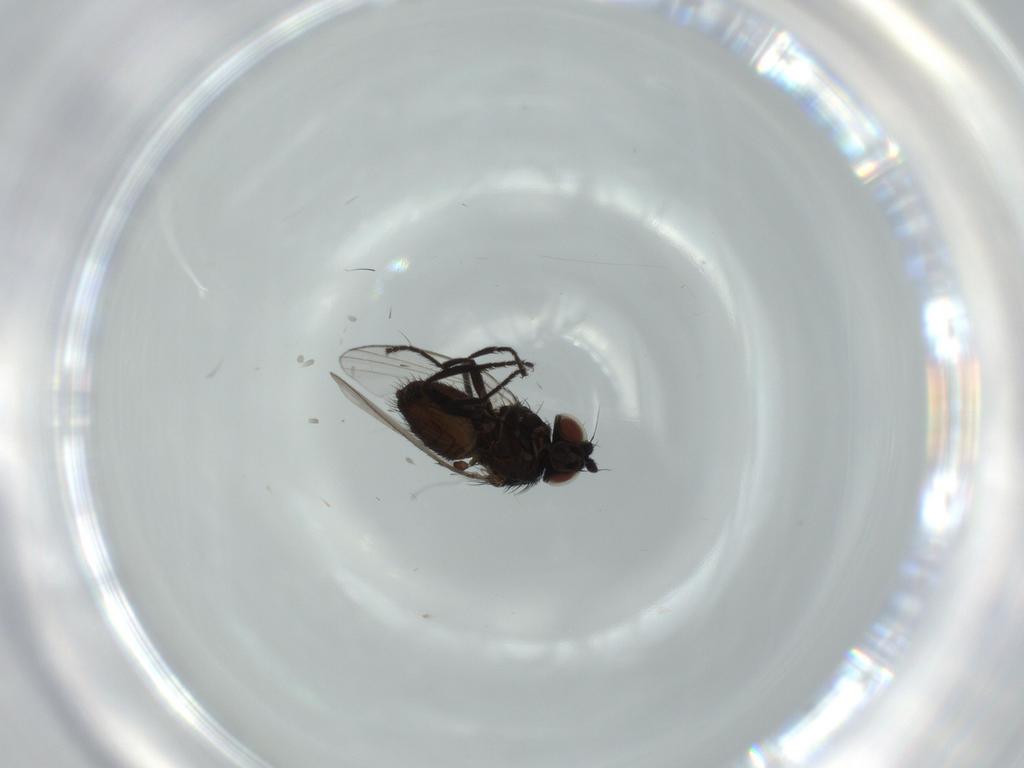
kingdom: Animalia
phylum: Arthropoda
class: Insecta
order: Diptera
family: Milichiidae
